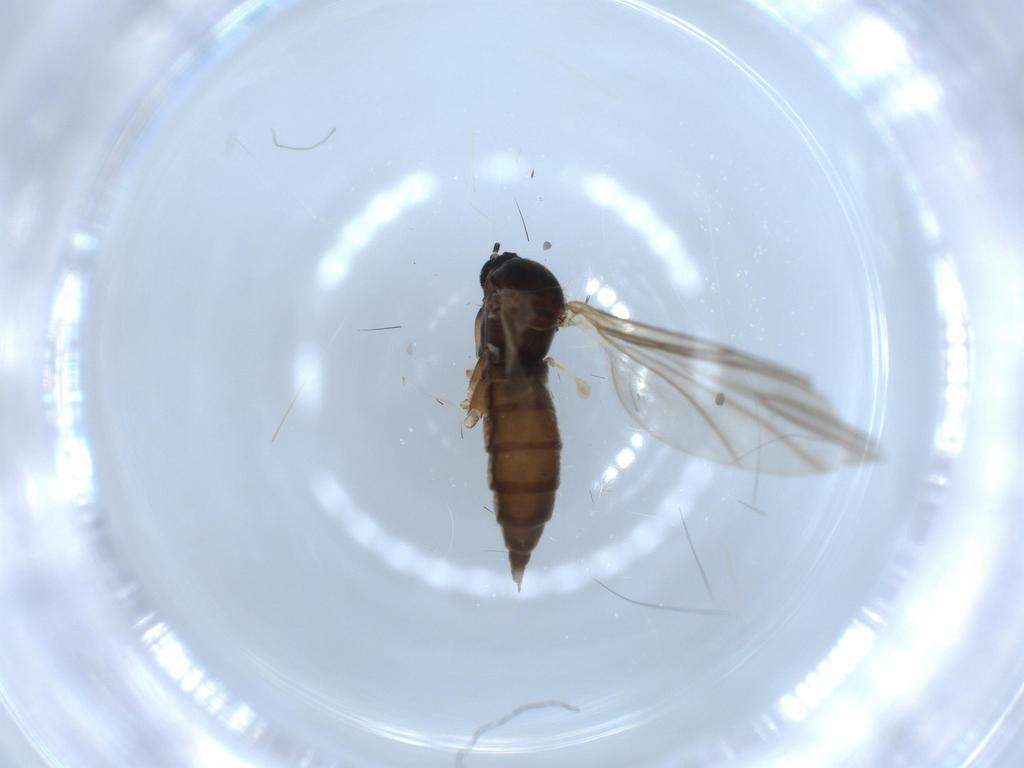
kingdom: Animalia
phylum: Arthropoda
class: Insecta
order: Diptera
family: Sciaridae
